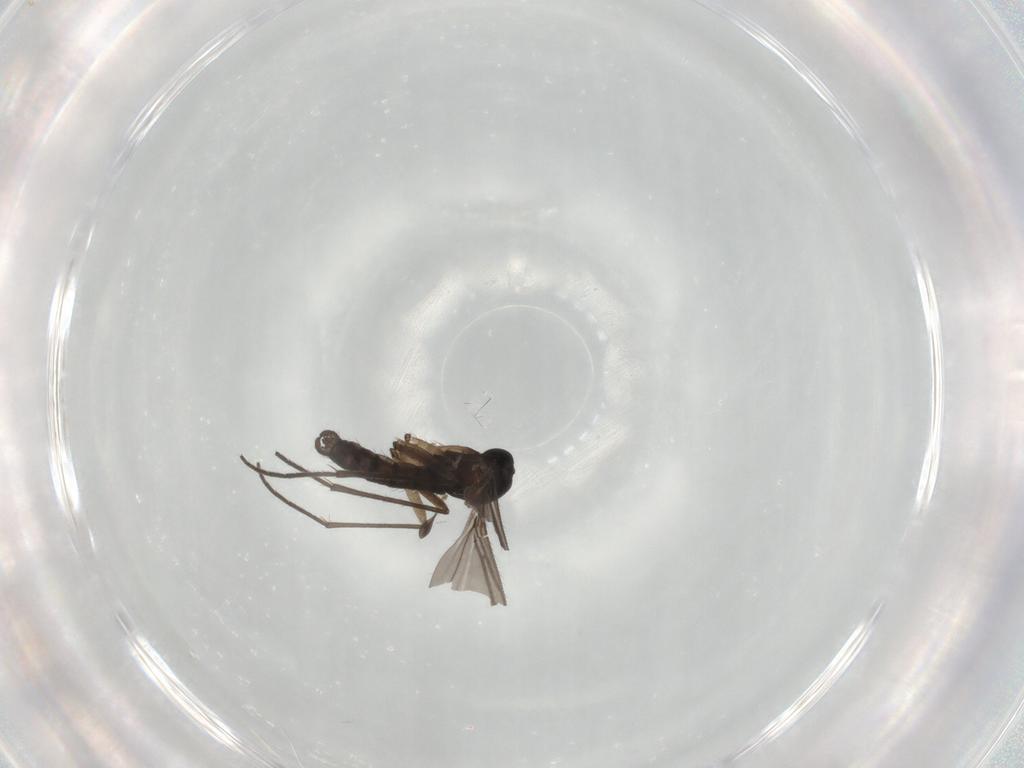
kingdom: Animalia
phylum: Arthropoda
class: Insecta
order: Diptera
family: Sciaridae
